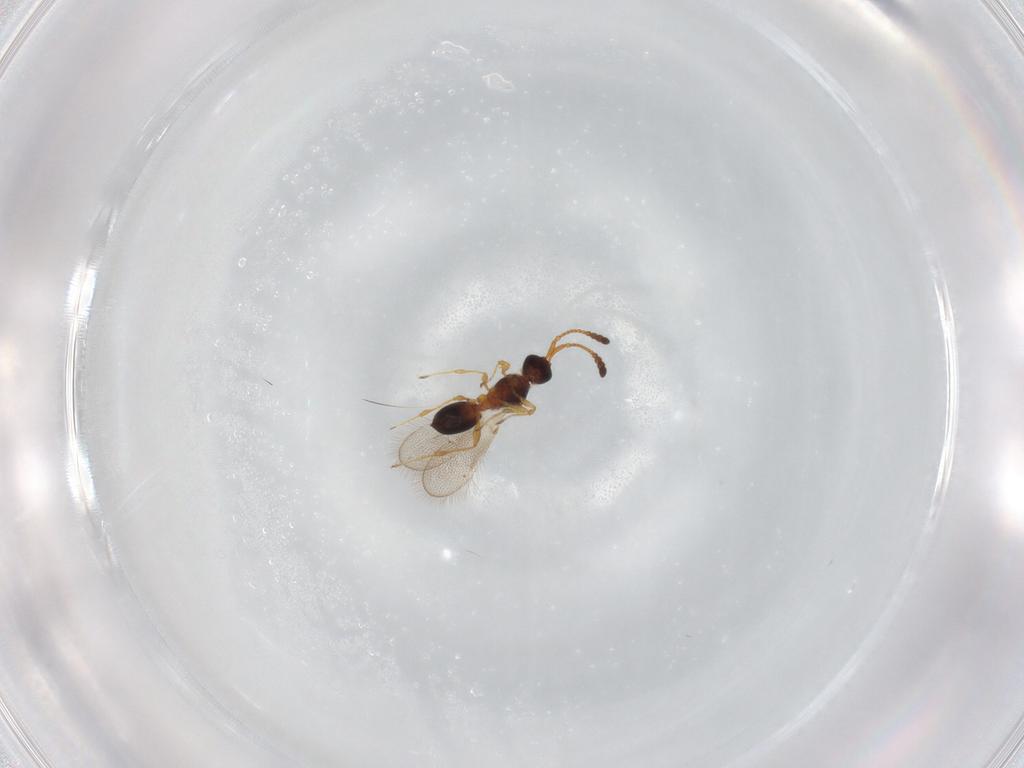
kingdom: Animalia
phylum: Arthropoda
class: Insecta
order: Hymenoptera
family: Diapriidae
